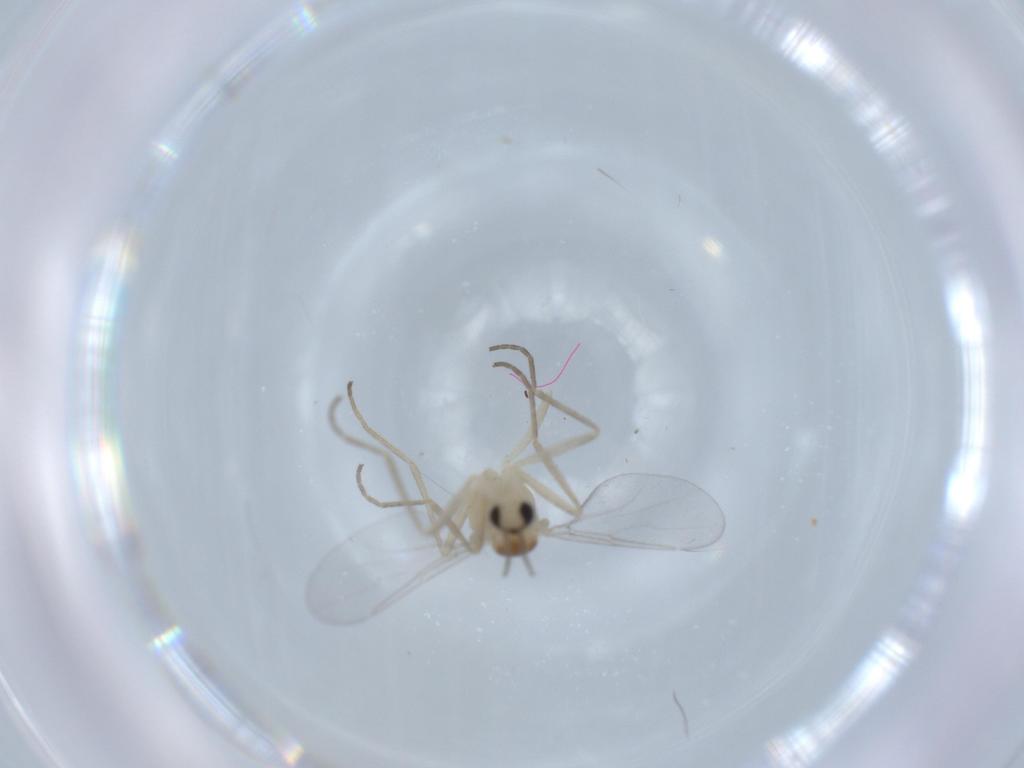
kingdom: Animalia
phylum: Arthropoda
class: Insecta
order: Diptera
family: Cecidomyiidae
